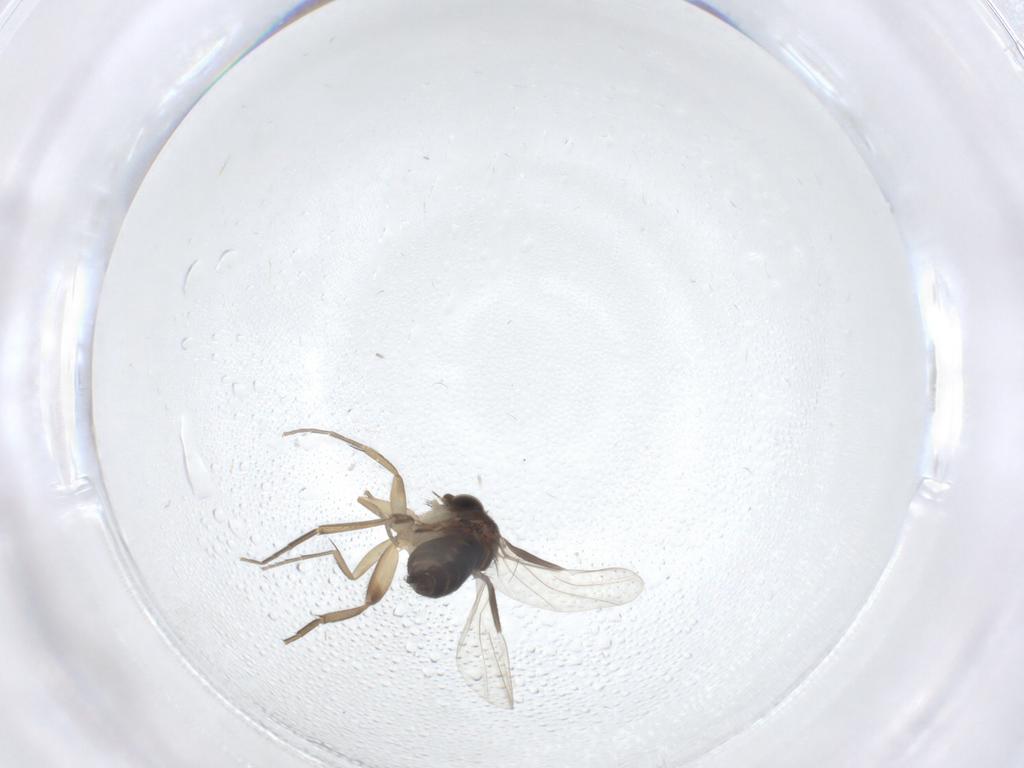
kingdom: Animalia
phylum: Arthropoda
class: Insecta
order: Diptera
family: Phoridae
